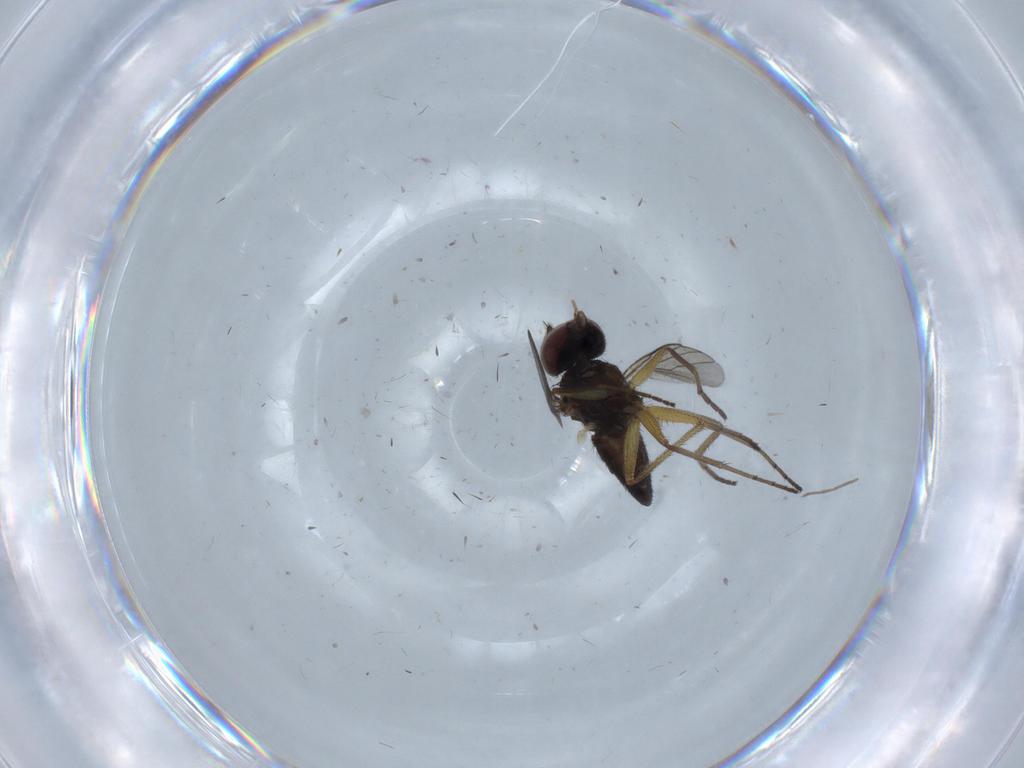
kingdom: Animalia
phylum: Arthropoda
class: Insecta
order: Diptera
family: Dolichopodidae
